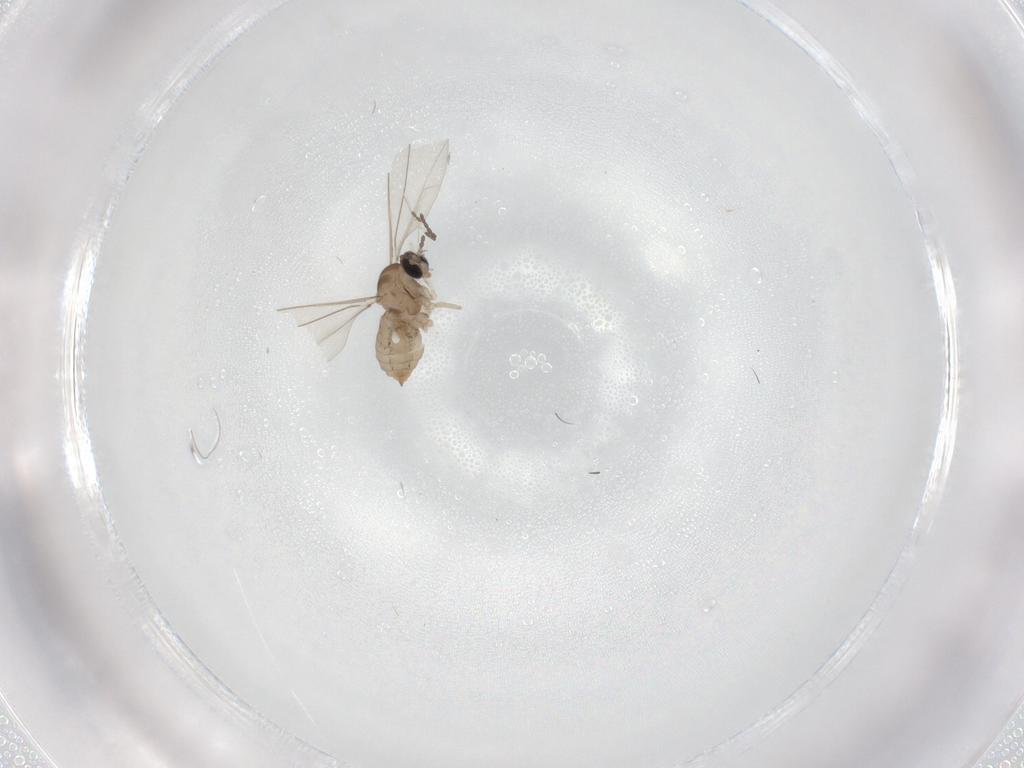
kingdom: Animalia
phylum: Arthropoda
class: Insecta
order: Diptera
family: Cecidomyiidae
